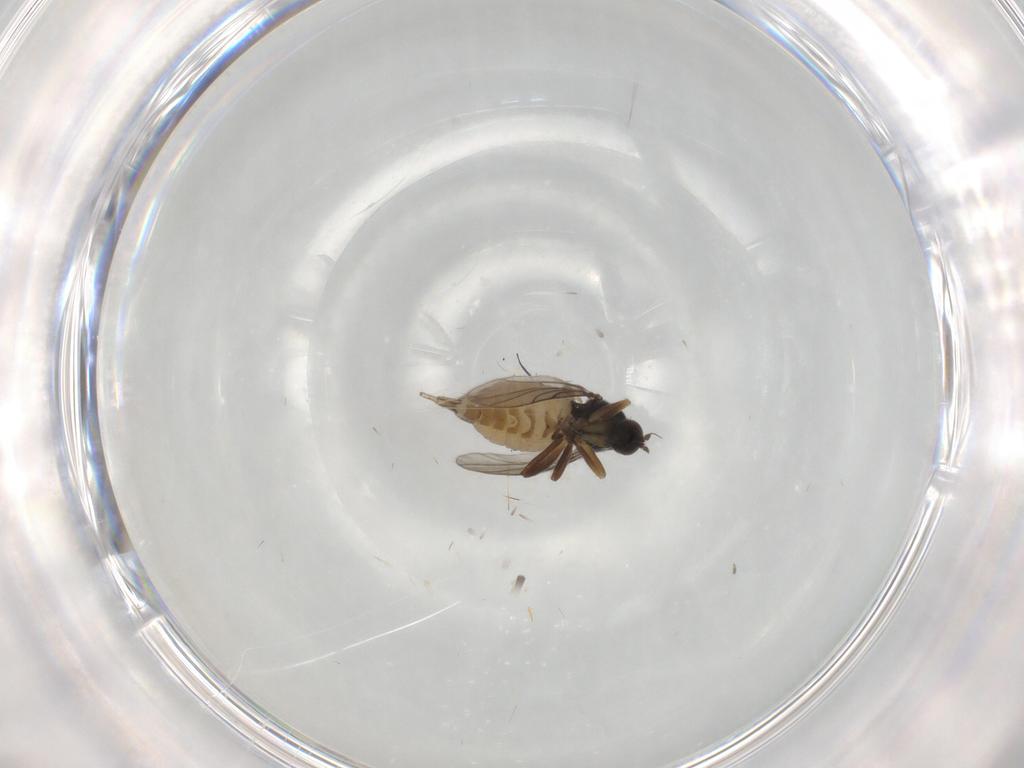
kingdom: Animalia
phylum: Arthropoda
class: Insecta
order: Diptera
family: Hybotidae
